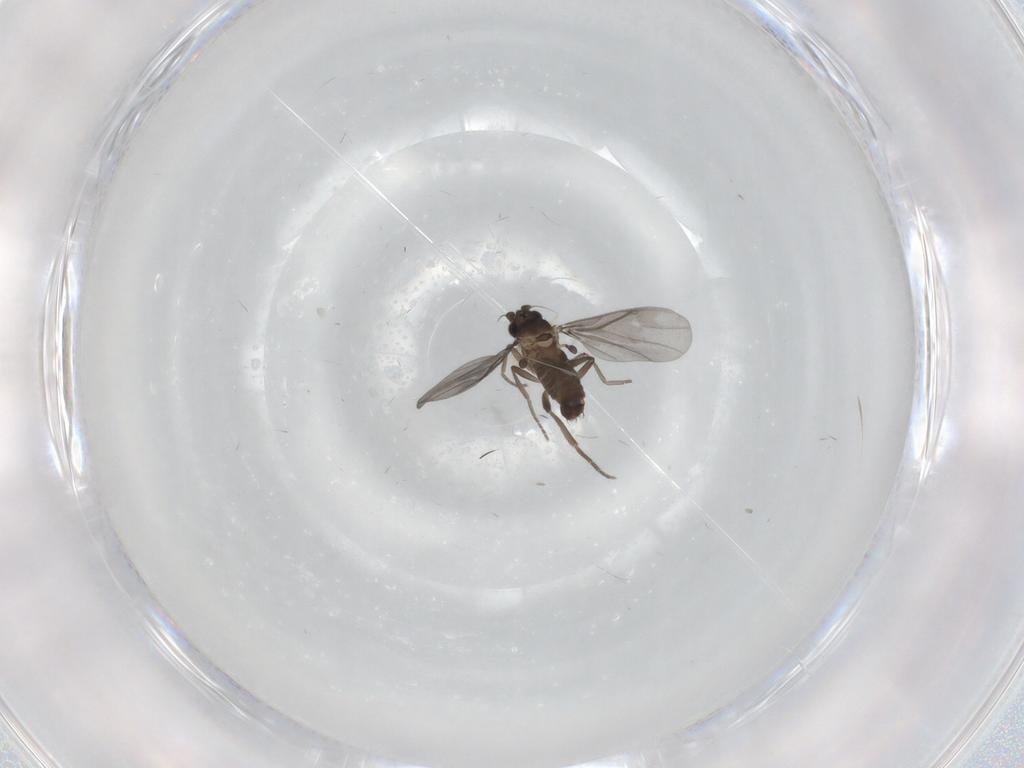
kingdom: Animalia
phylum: Arthropoda
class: Insecta
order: Diptera
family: Phoridae
